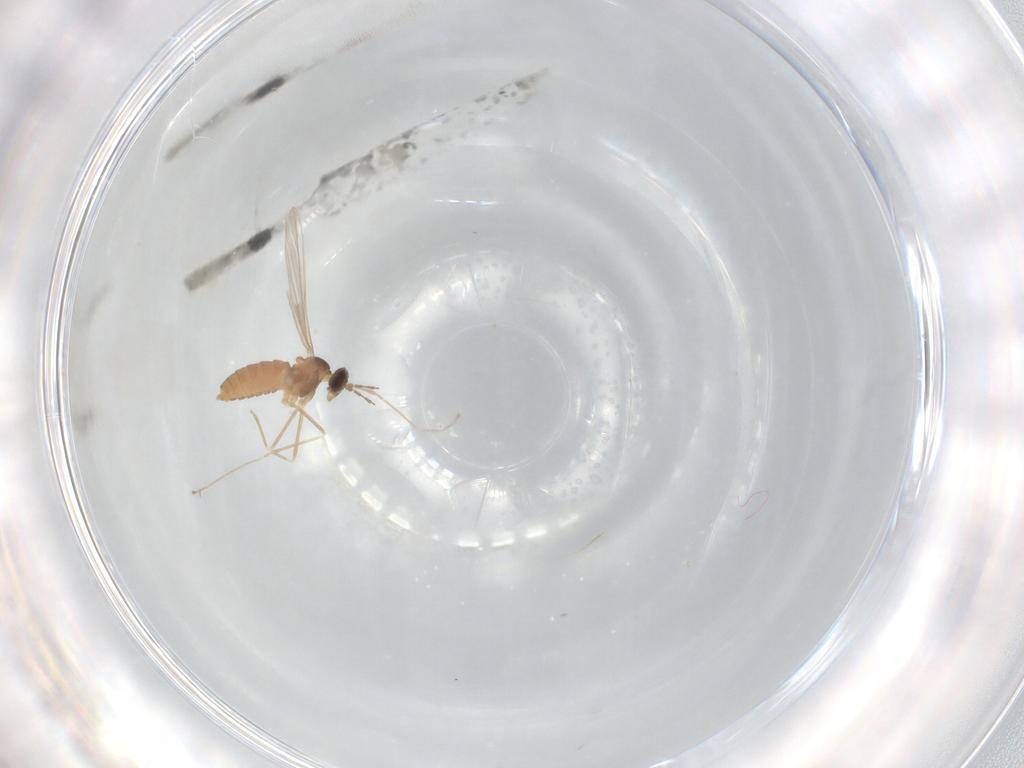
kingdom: Animalia
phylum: Arthropoda
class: Insecta
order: Diptera
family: Cecidomyiidae
